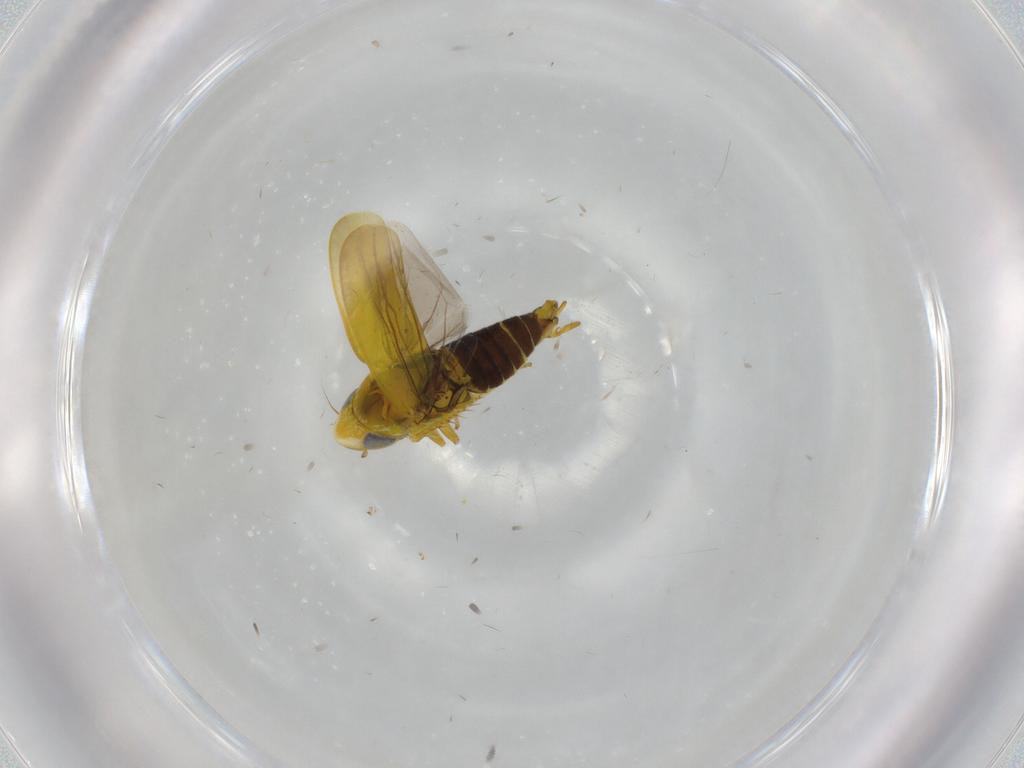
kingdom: Animalia
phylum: Arthropoda
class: Insecta
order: Hemiptera
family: Cicadellidae
